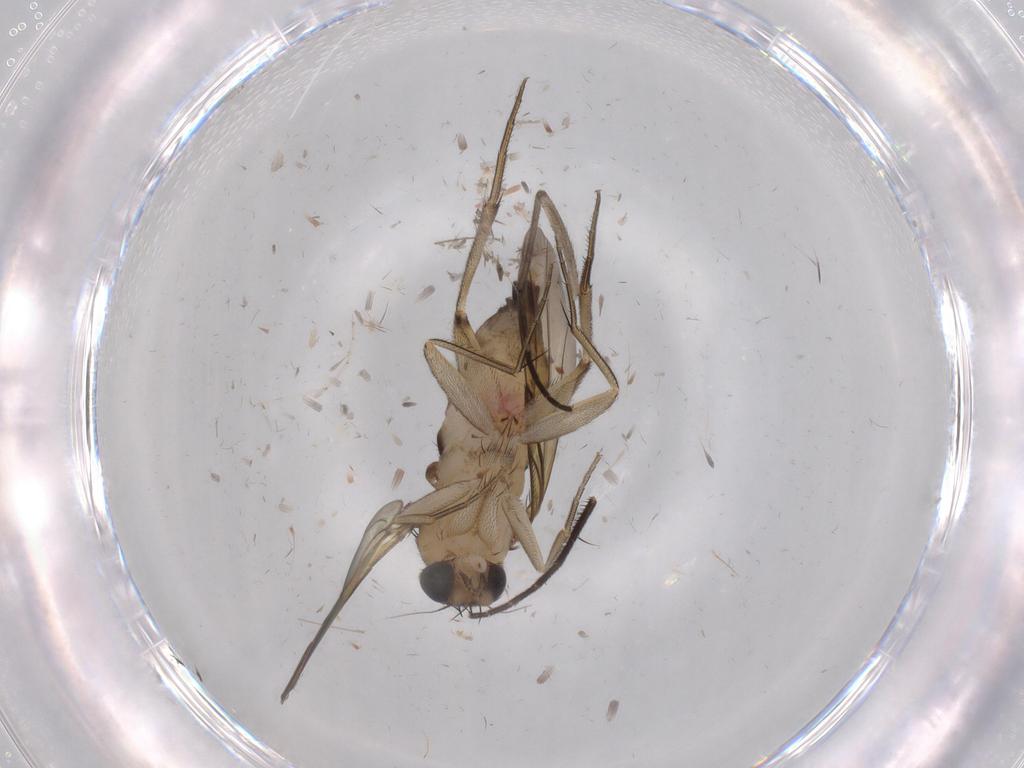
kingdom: Animalia
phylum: Arthropoda
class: Insecta
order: Diptera
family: Phoridae
